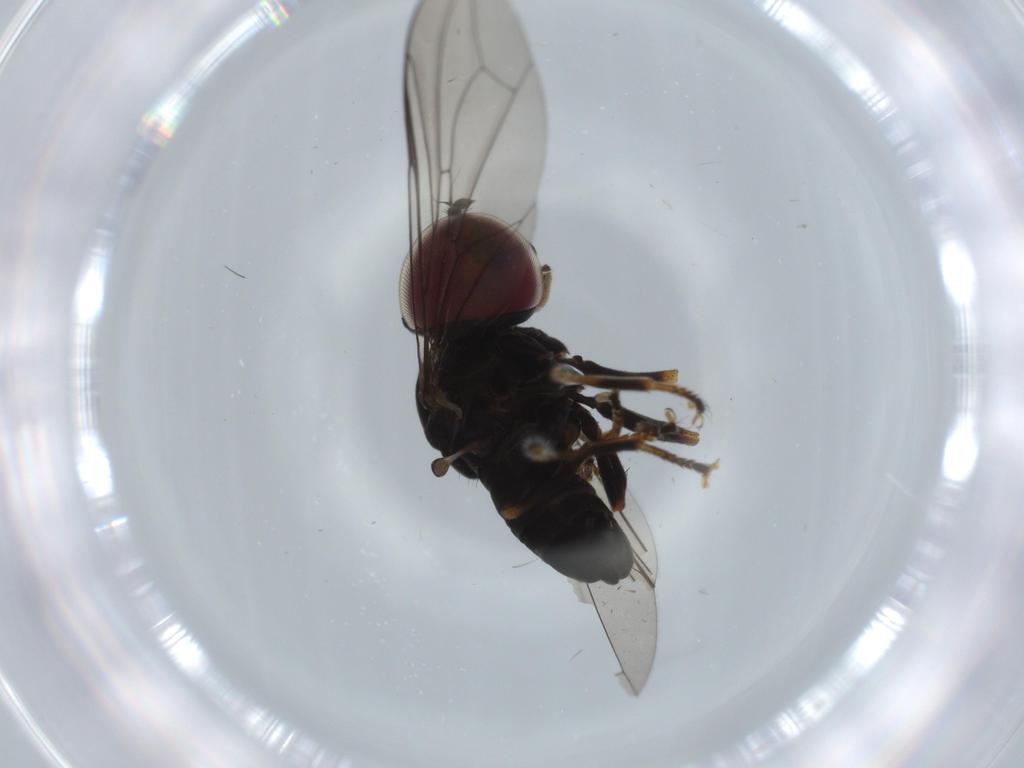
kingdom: Animalia
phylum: Arthropoda
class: Insecta
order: Diptera
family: Pipunculidae
